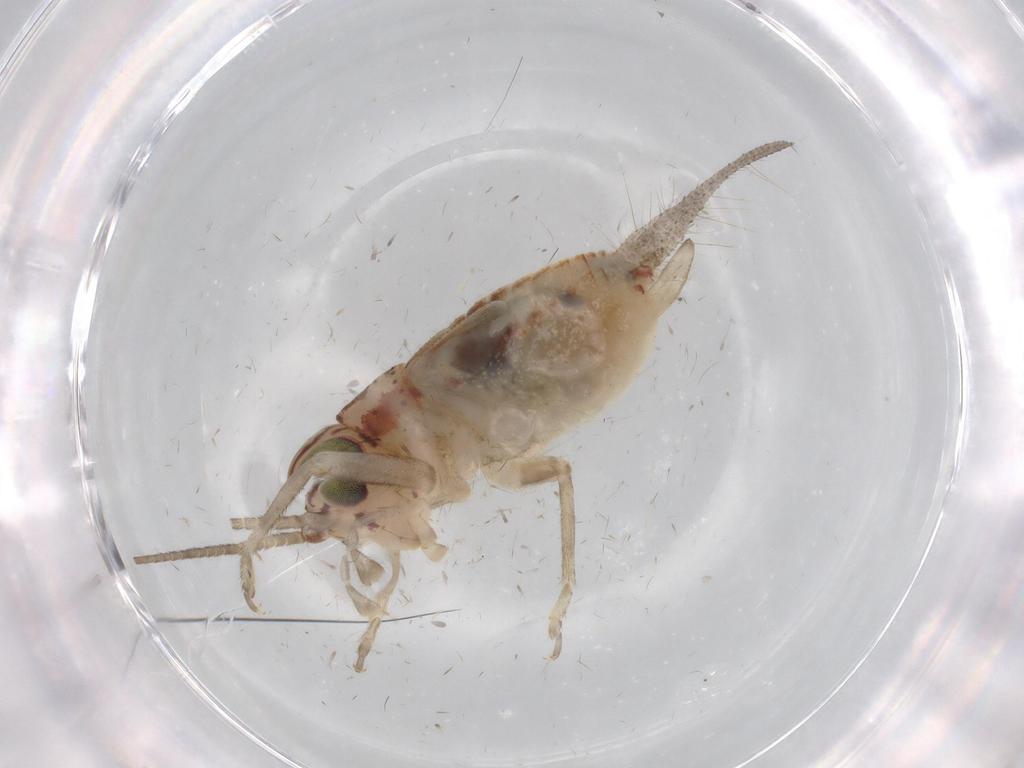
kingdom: Animalia
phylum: Arthropoda
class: Insecta
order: Orthoptera
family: Trigonidiidae
